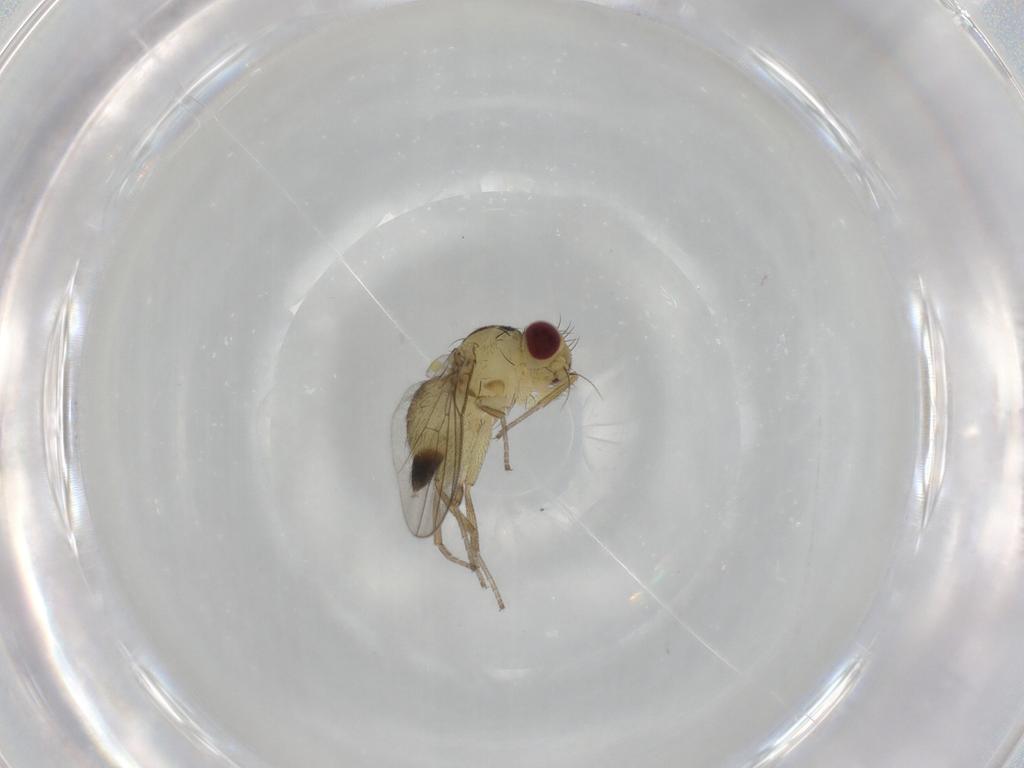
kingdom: Animalia
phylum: Arthropoda
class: Insecta
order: Diptera
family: Agromyzidae
